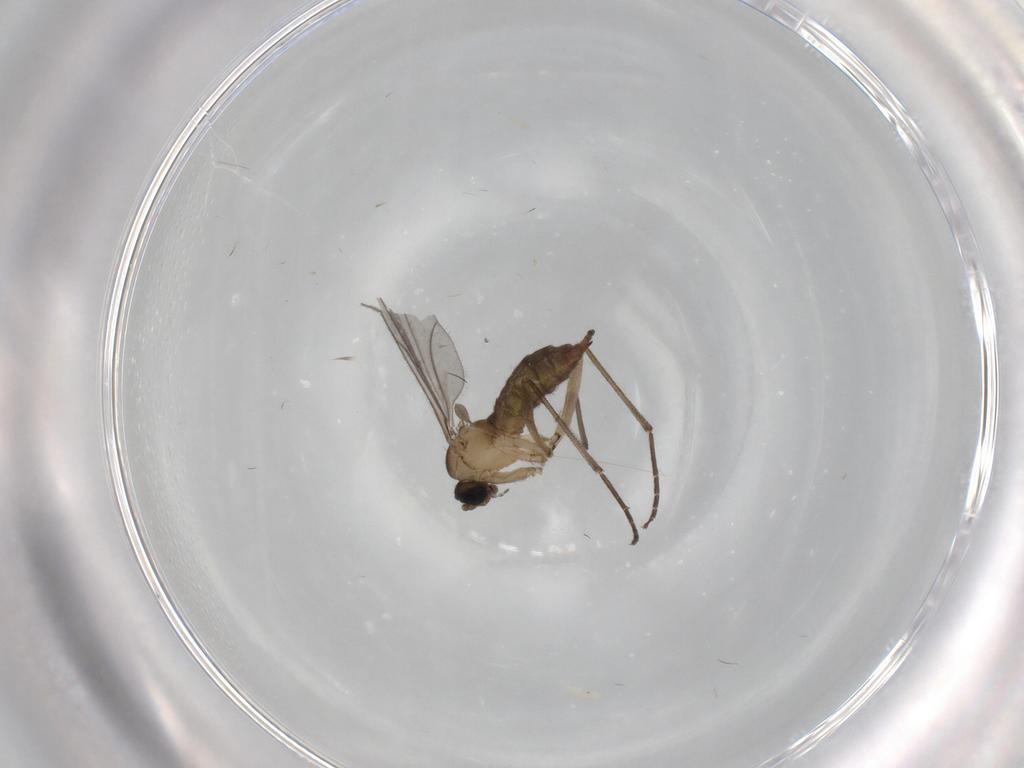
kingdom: Animalia
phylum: Arthropoda
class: Insecta
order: Diptera
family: Sciaridae
